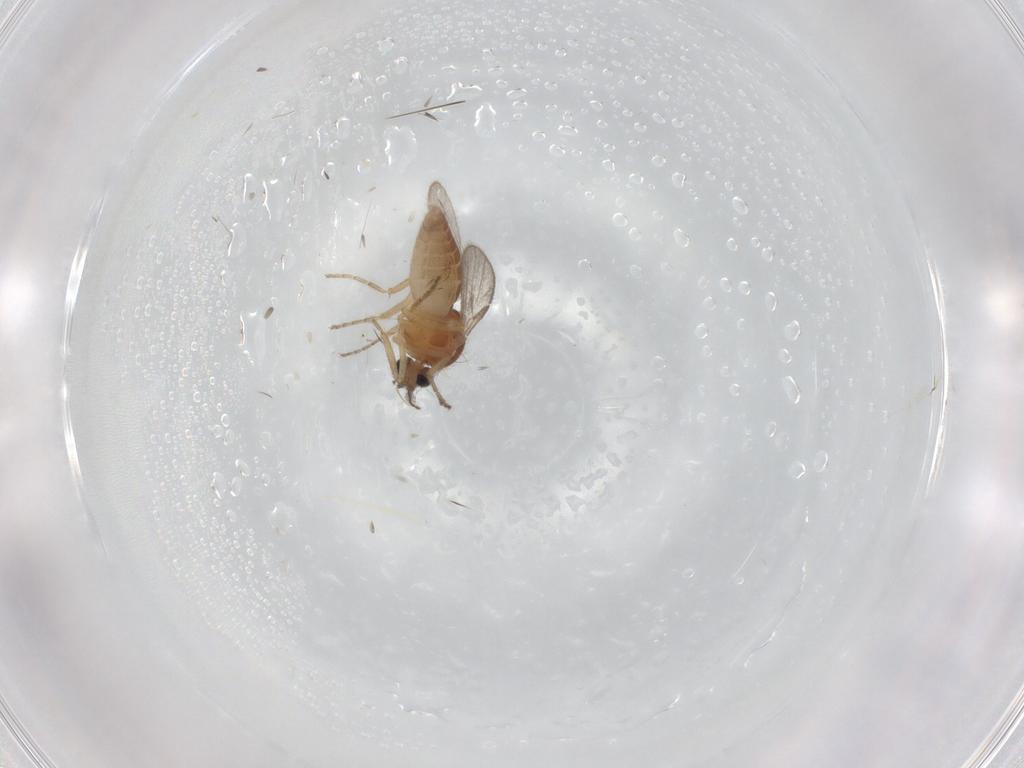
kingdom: Animalia
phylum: Arthropoda
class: Insecta
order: Diptera
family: Ceratopogonidae
